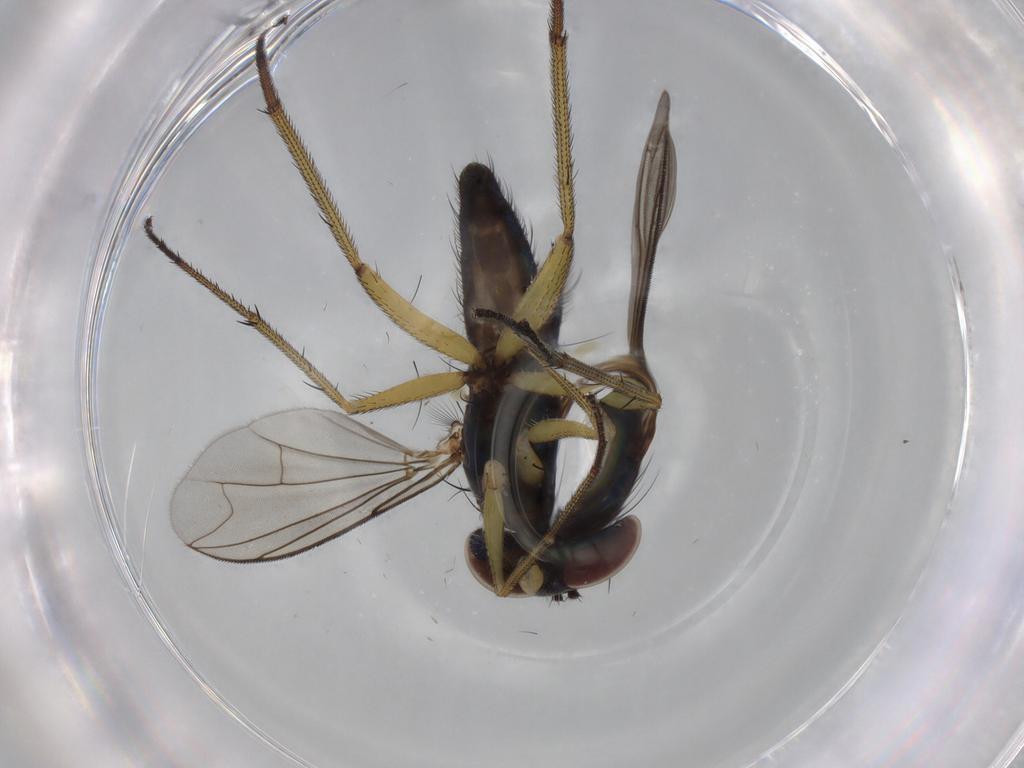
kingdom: Animalia
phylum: Arthropoda
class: Insecta
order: Diptera
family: Dolichopodidae
